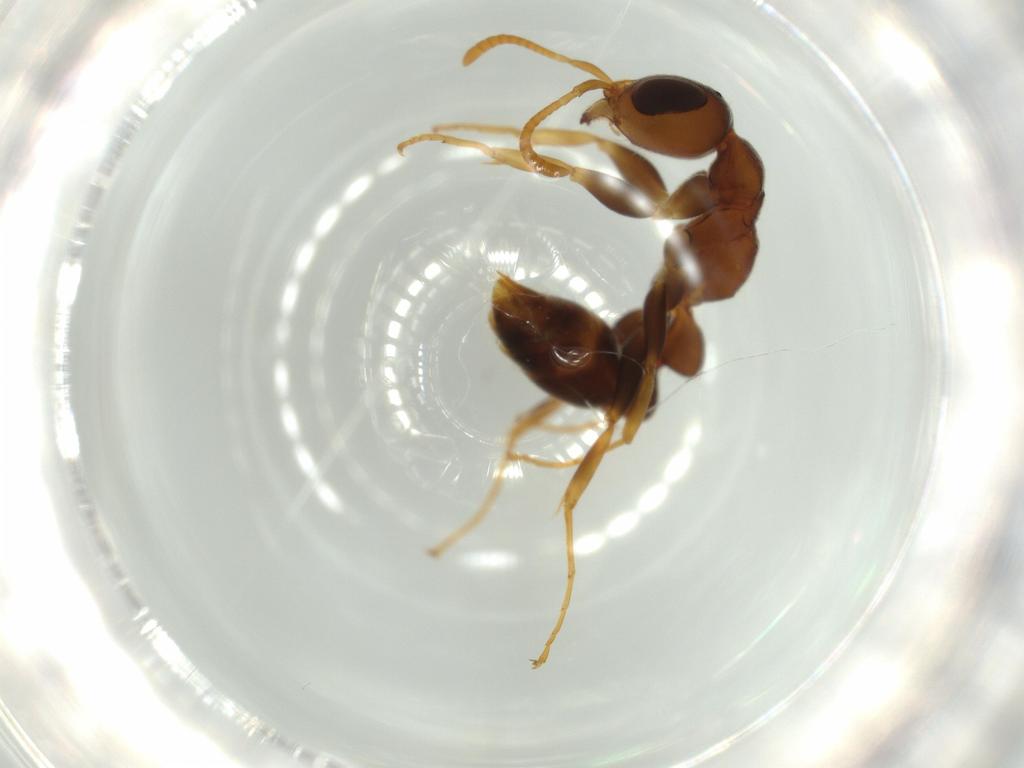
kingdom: Animalia
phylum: Arthropoda
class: Insecta
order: Hymenoptera
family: Formicidae
